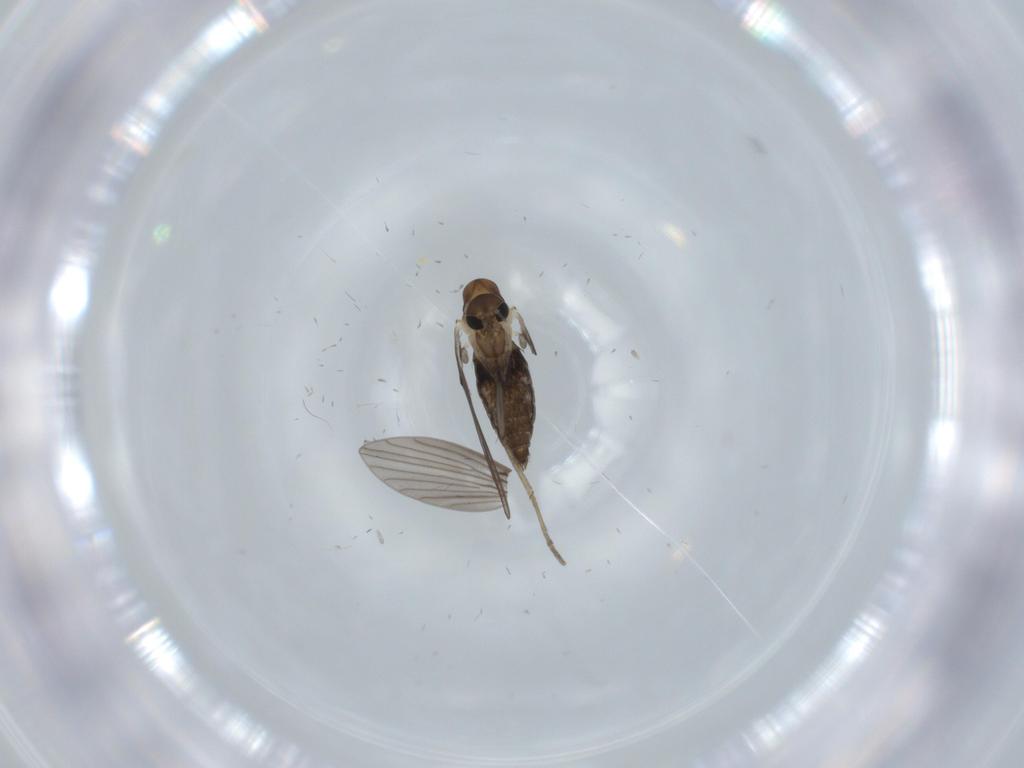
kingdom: Animalia
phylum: Arthropoda
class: Insecta
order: Diptera
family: Psychodidae
